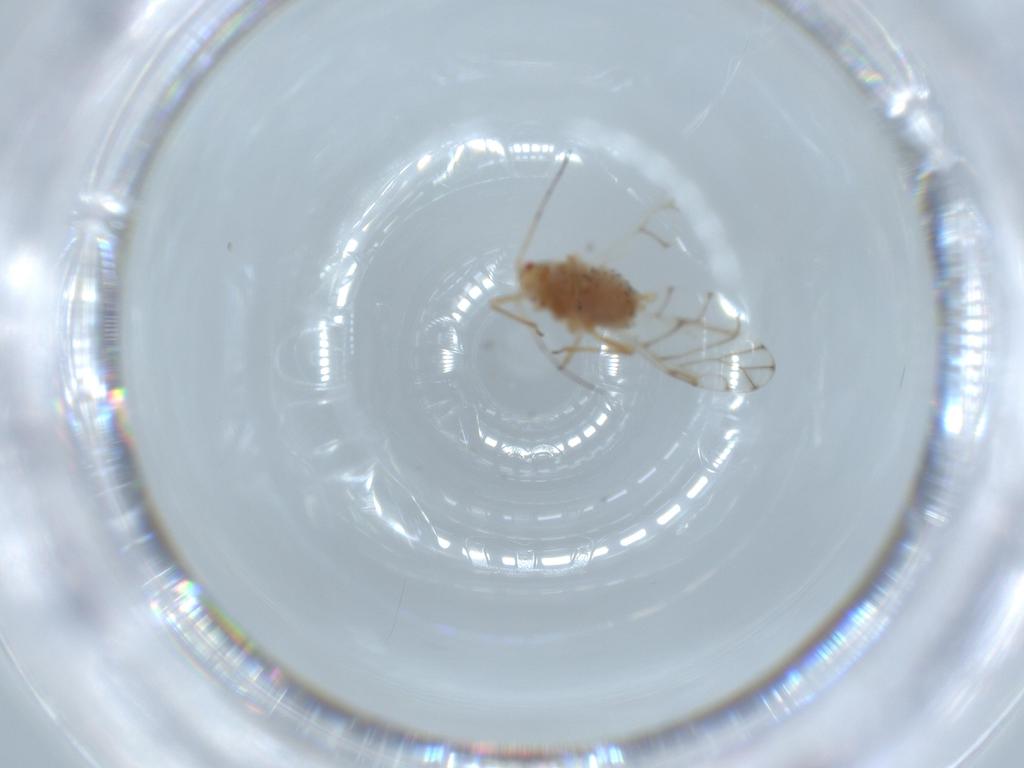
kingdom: Animalia
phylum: Arthropoda
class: Insecta
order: Hemiptera
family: Aphididae
